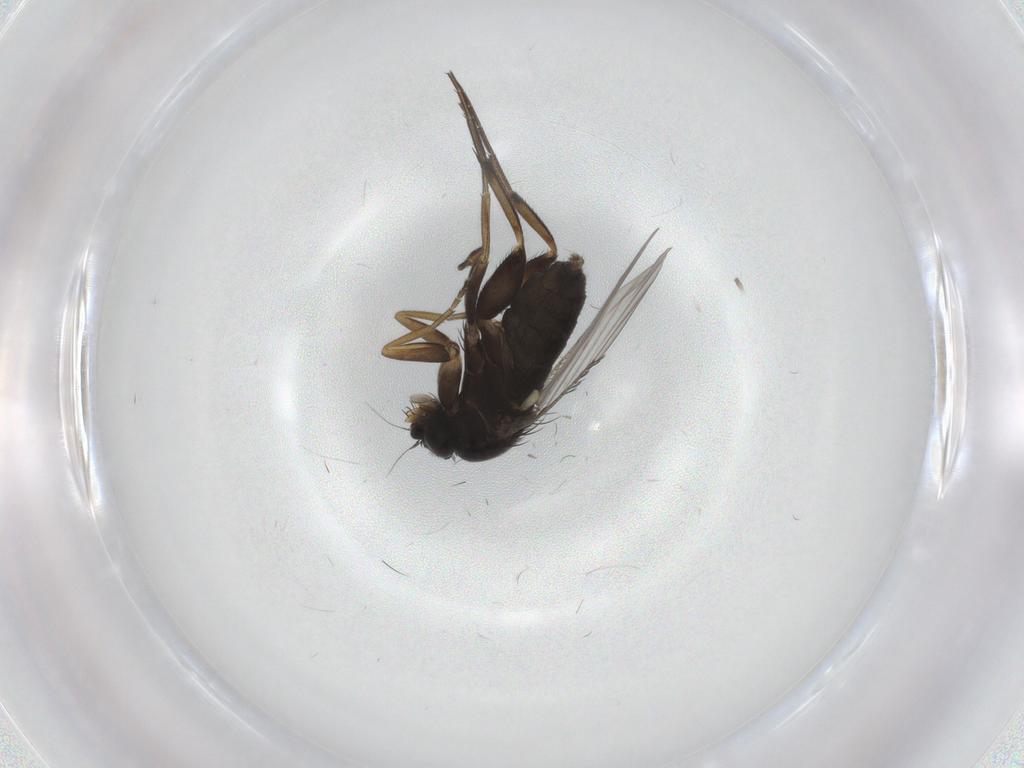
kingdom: Animalia
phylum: Arthropoda
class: Insecta
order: Diptera
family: Phoridae
